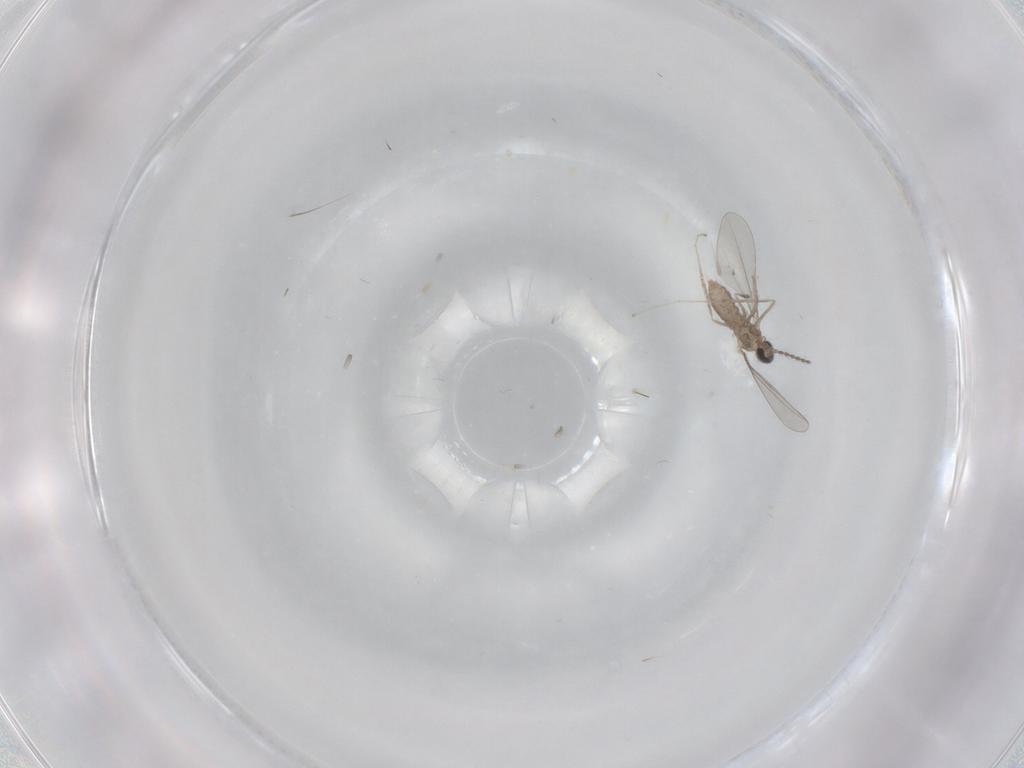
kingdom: Animalia
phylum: Arthropoda
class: Insecta
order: Diptera
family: Cecidomyiidae
